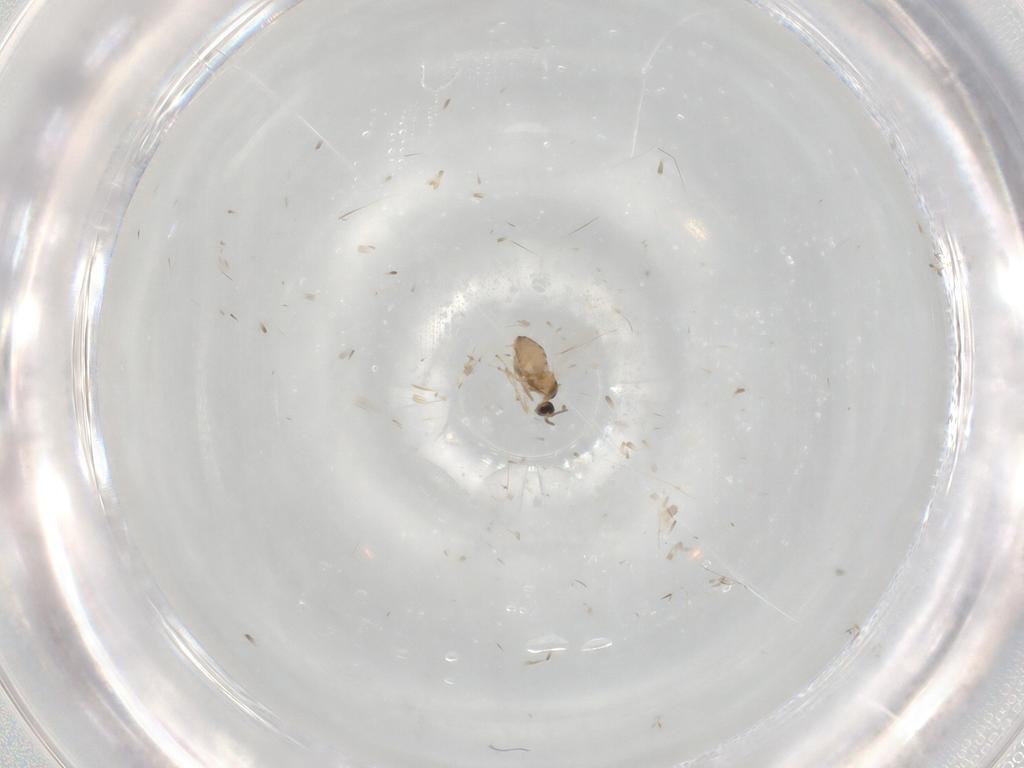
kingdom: Animalia
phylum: Arthropoda
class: Insecta
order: Diptera
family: Cecidomyiidae
